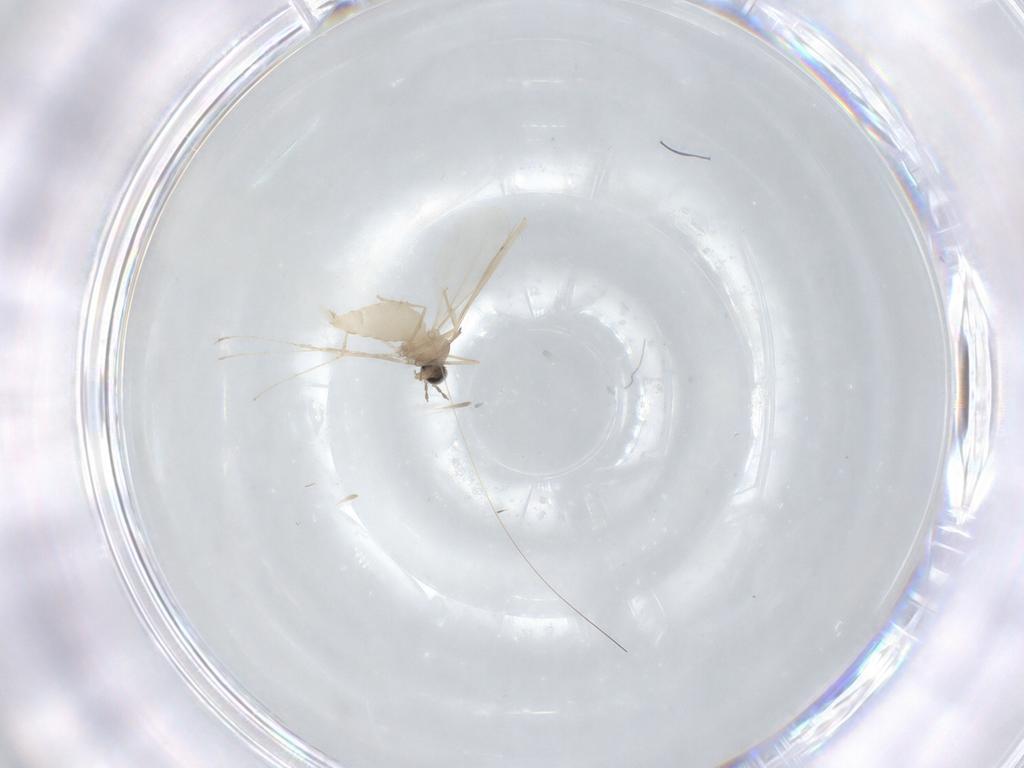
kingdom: Animalia
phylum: Arthropoda
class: Insecta
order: Diptera
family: Cecidomyiidae
